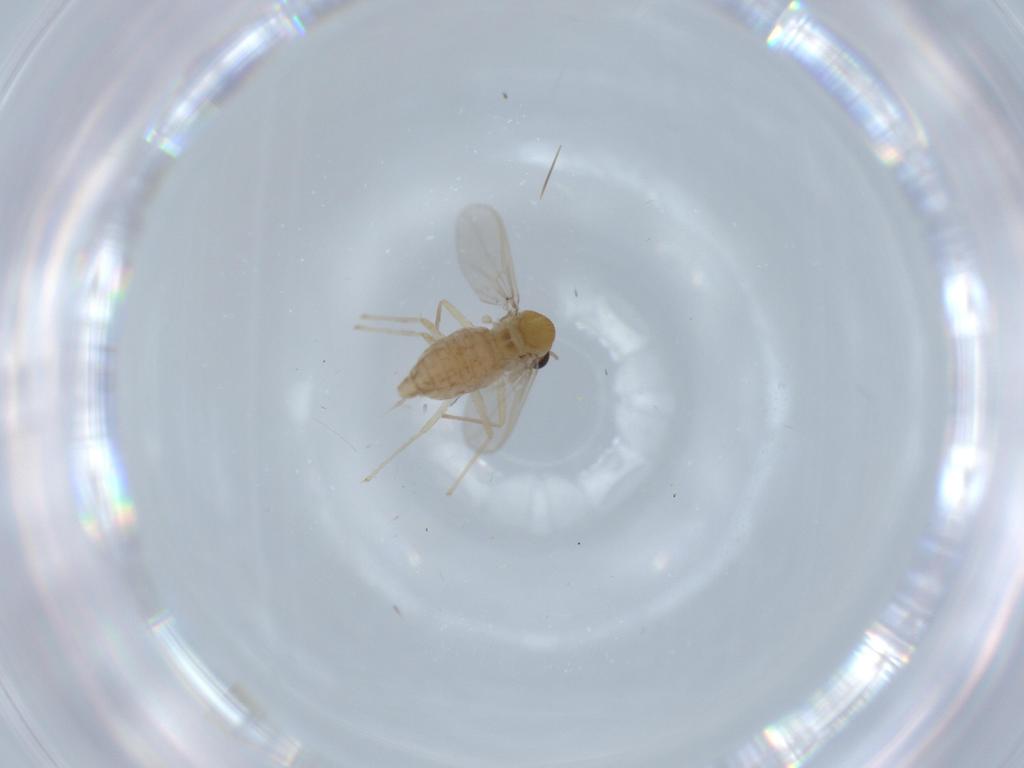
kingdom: Animalia
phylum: Arthropoda
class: Insecta
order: Diptera
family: Chironomidae
